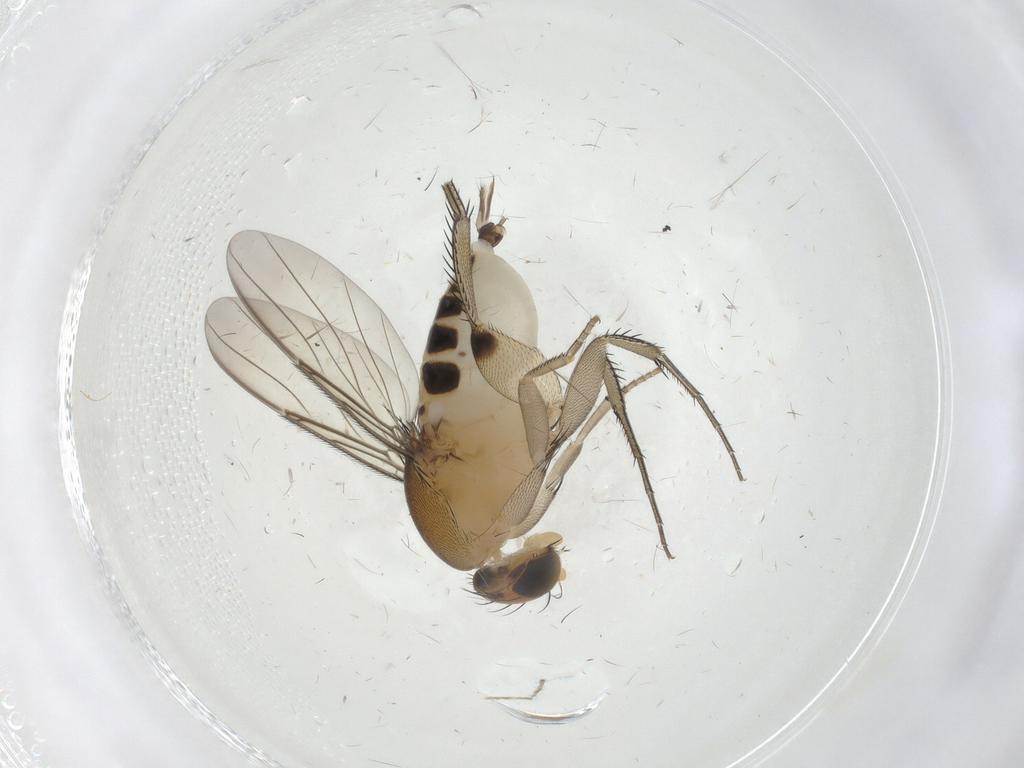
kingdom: Animalia
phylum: Arthropoda
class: Insecta
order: Diptera
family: Phoridae
